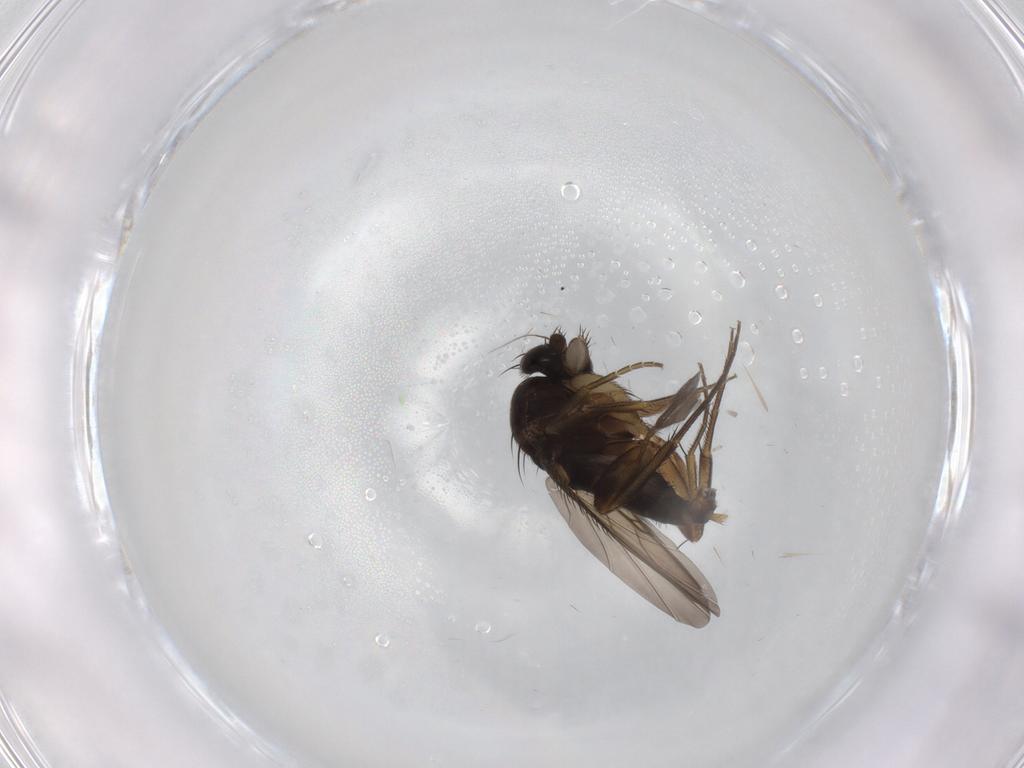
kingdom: Animalia
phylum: Arthropoda
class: Insecta
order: Diptera
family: Phoridae
